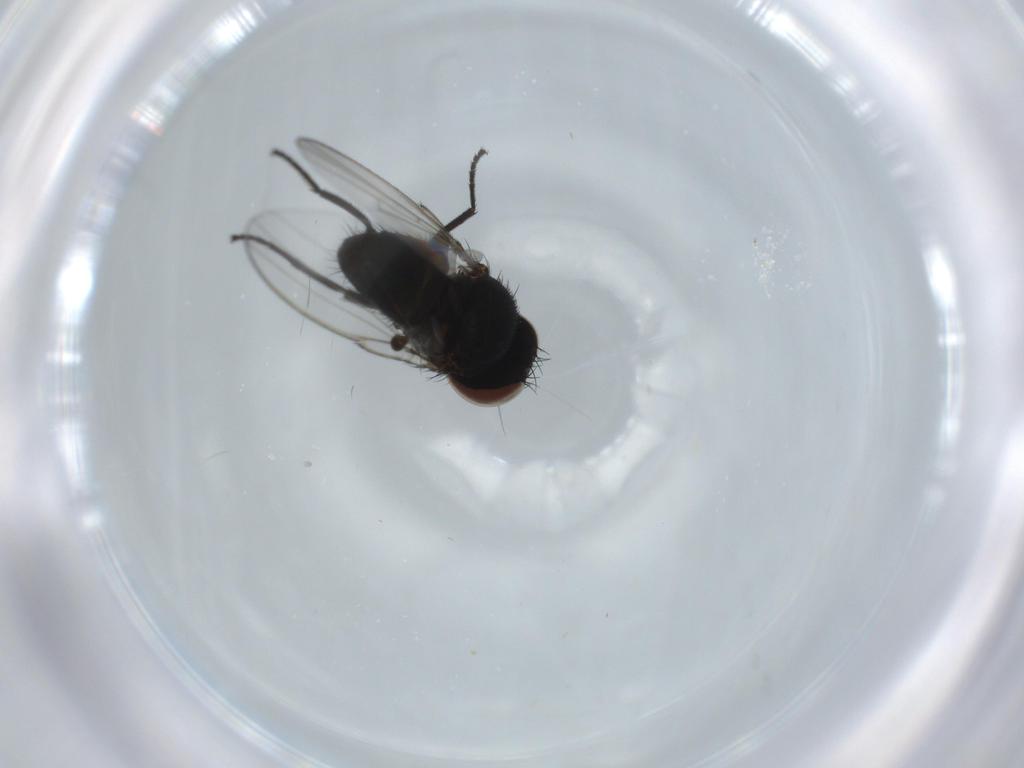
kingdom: Animalia
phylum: Arthropoda
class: Insecta
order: Diptera
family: Milichiidae
